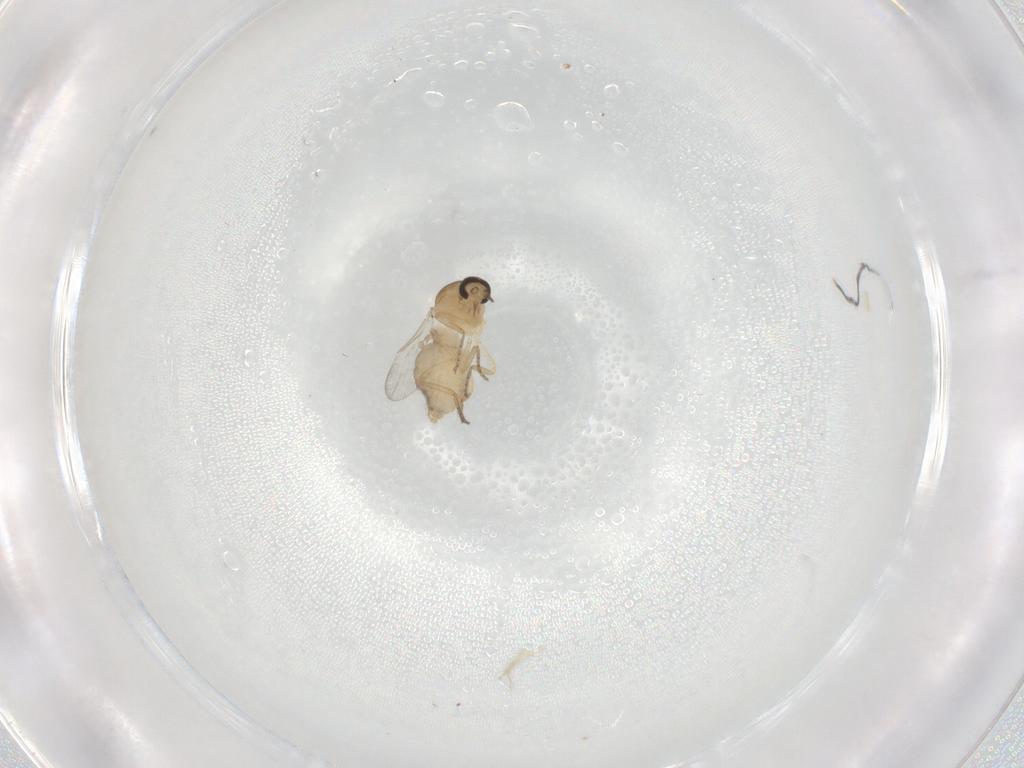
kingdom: Animalia
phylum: Arthropoda
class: Insecta
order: Diptera
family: Ceratopogonidae
